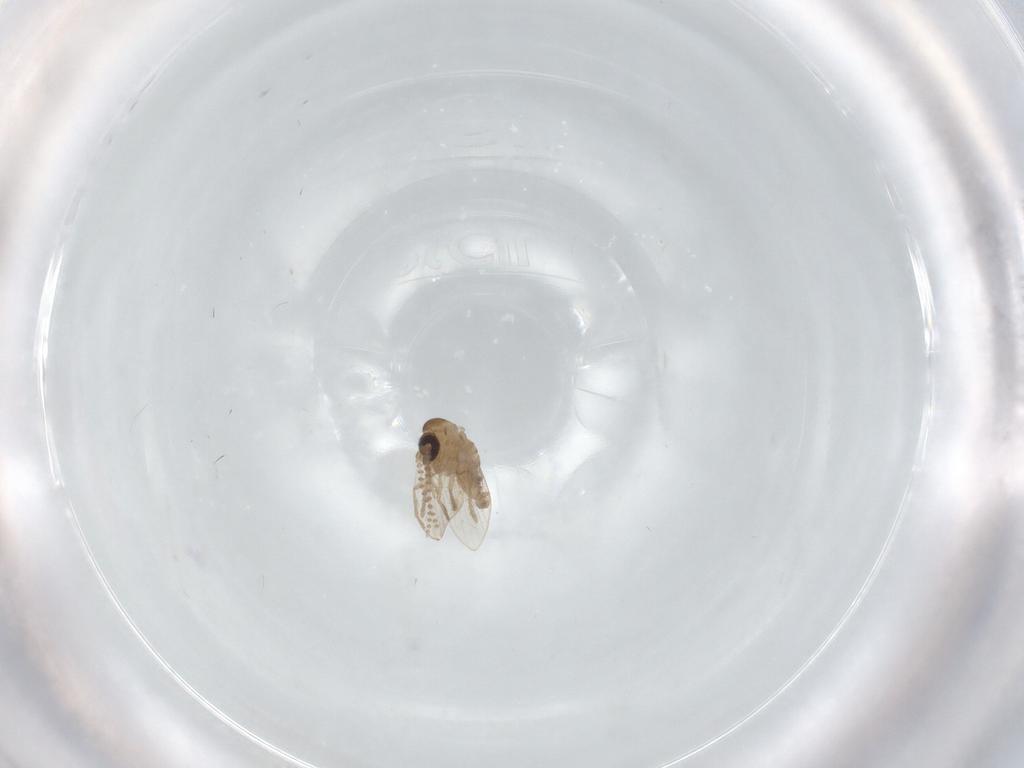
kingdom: Animalia
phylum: Arthropoda
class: Insecta
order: Diptera
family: Psychodidae
